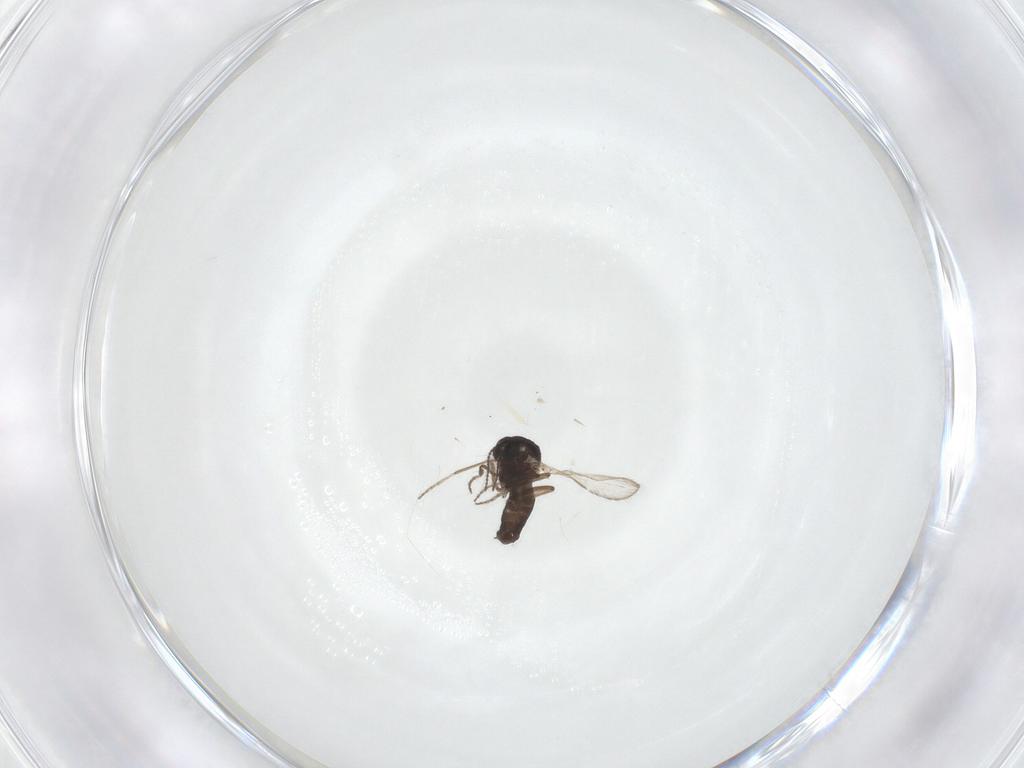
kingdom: Animalia
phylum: Arthropoda
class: Insecta
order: Diptera
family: Ceratopogonidae
